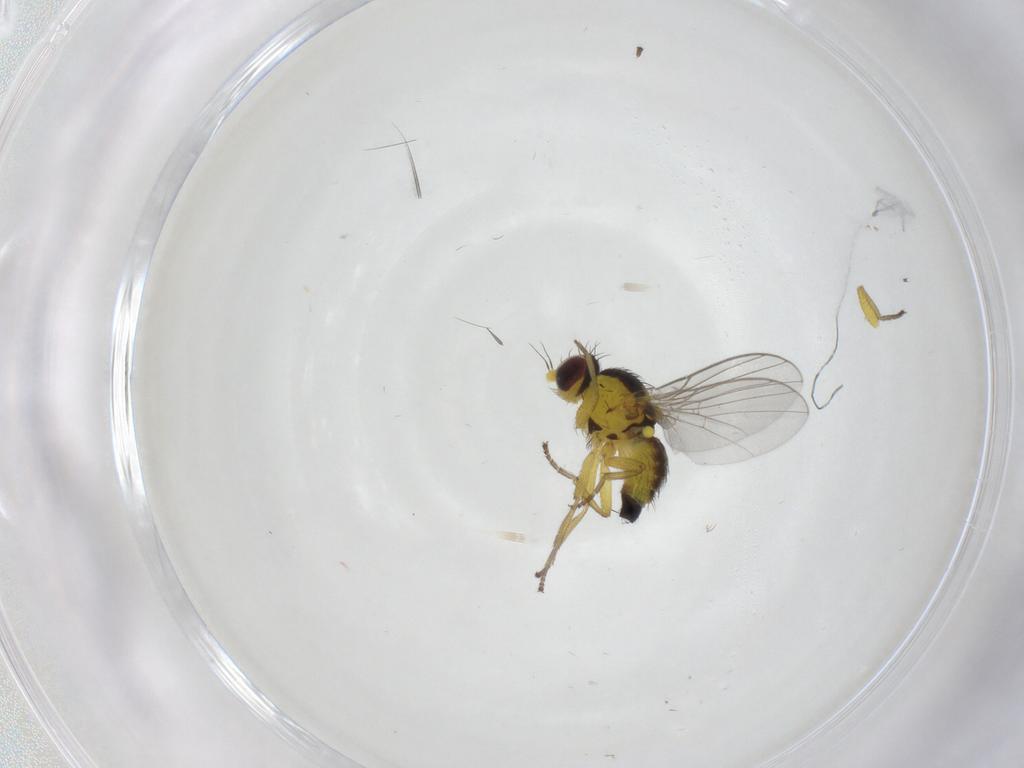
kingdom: Animalia
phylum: Arthropoda
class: Insecta
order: Diptera
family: Phoridae
